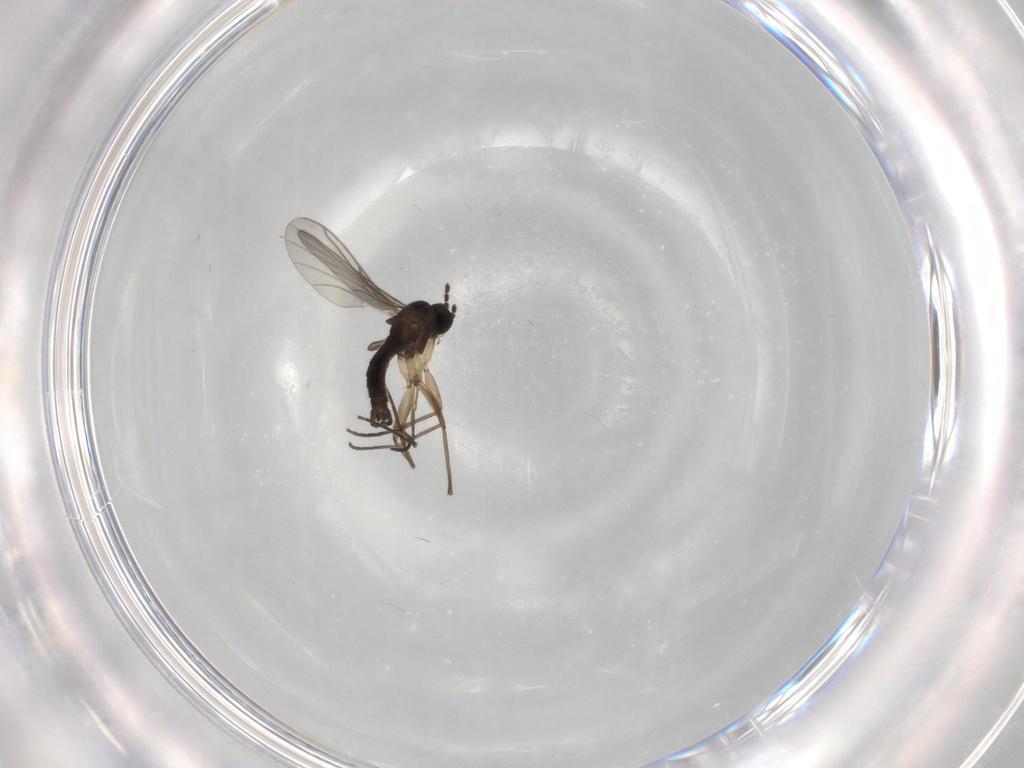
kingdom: Animalia
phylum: Arthropoda
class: Insecta
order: Diptera
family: Sciaridae
